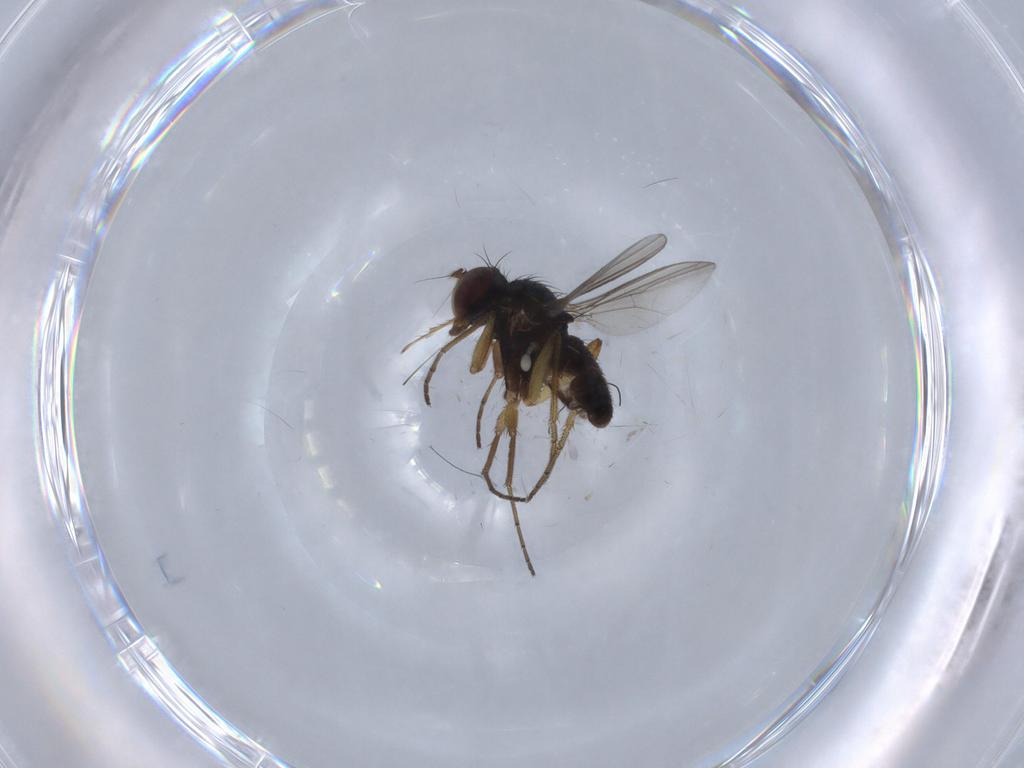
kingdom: Animalia
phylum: Arthropoda
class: Insecta
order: Diptera
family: Dolichopodidae
